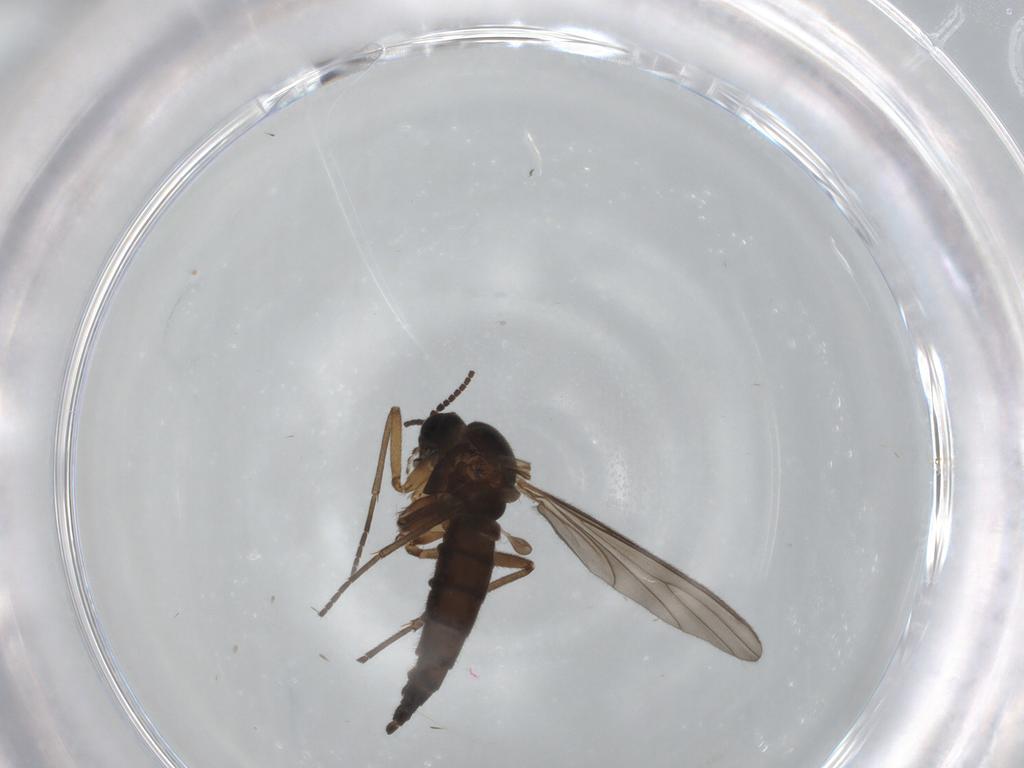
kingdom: Animalia
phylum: Arthropoda
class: Insecta
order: Diptera
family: Sciaridae
